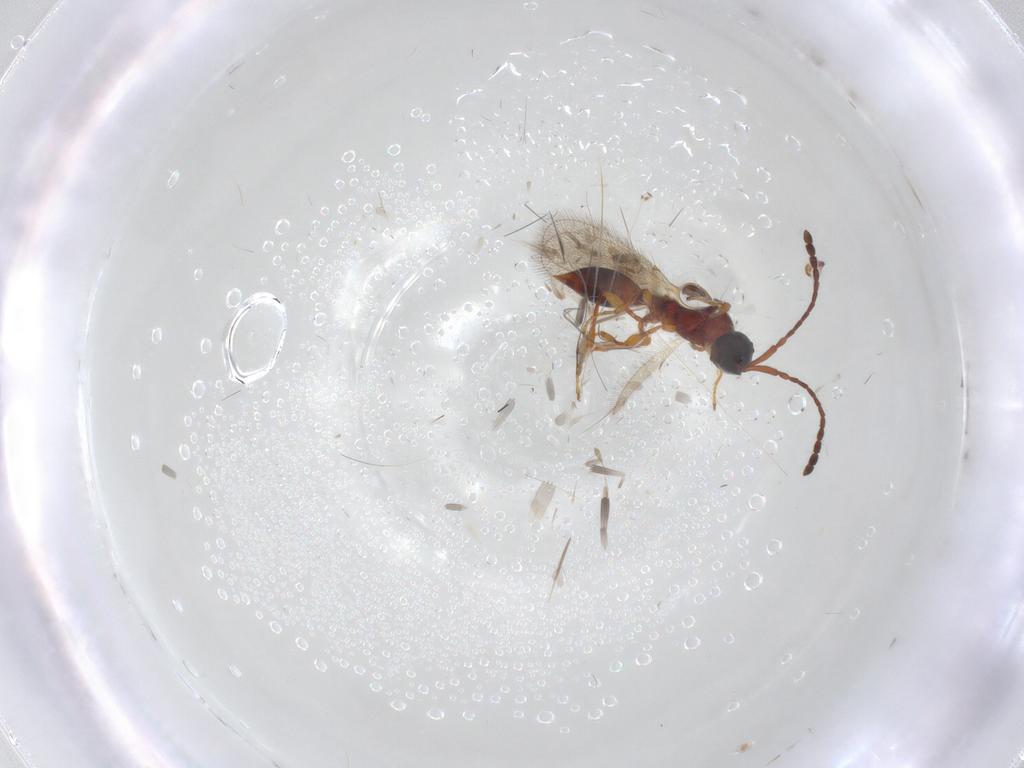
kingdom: Animalia
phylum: Arthropoda
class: Insecta
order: Hymenoptera
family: Diapriidae
